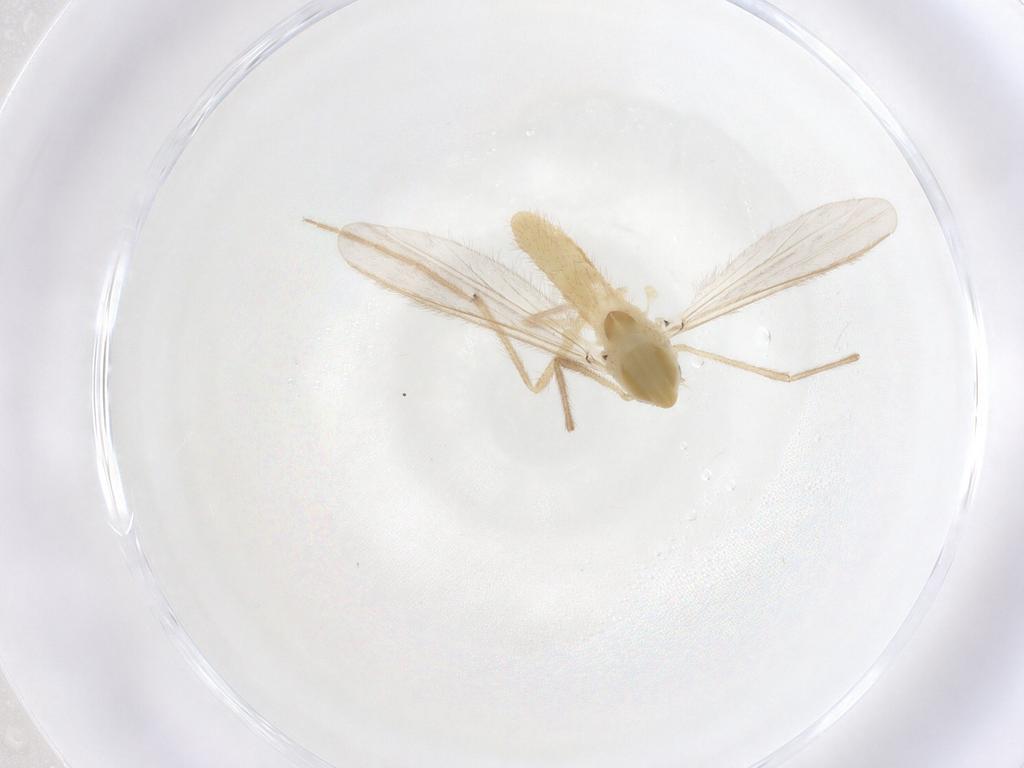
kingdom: Animalia
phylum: Arthropoda
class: Insecta
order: Diptera
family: Chironomidae
